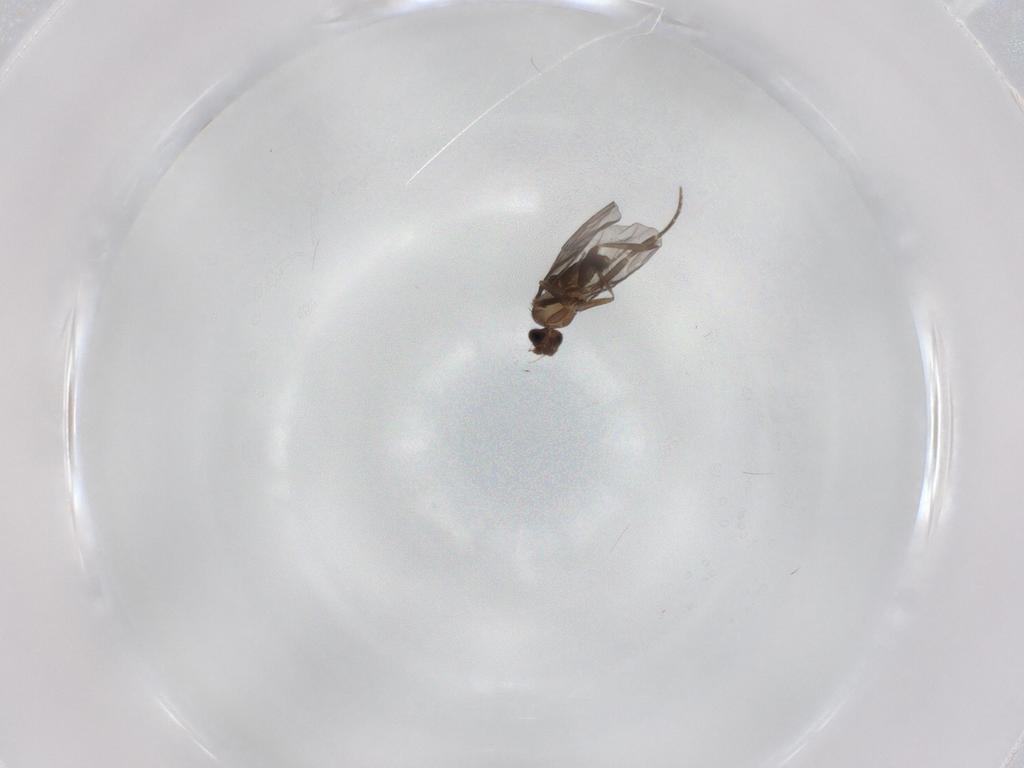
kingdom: Animalia
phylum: Arthropoda
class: Insecta
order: Diptera
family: Phoridae
